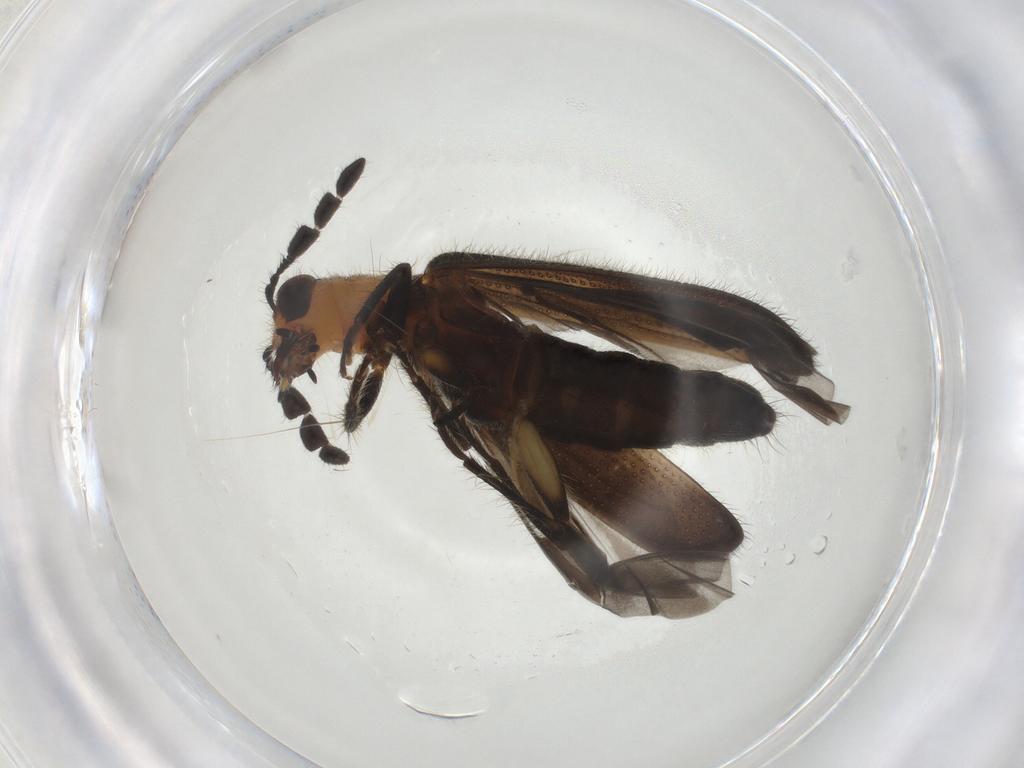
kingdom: Animalia
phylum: Arthropoda
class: Insecta
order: Coleoptera
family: Cleridae
